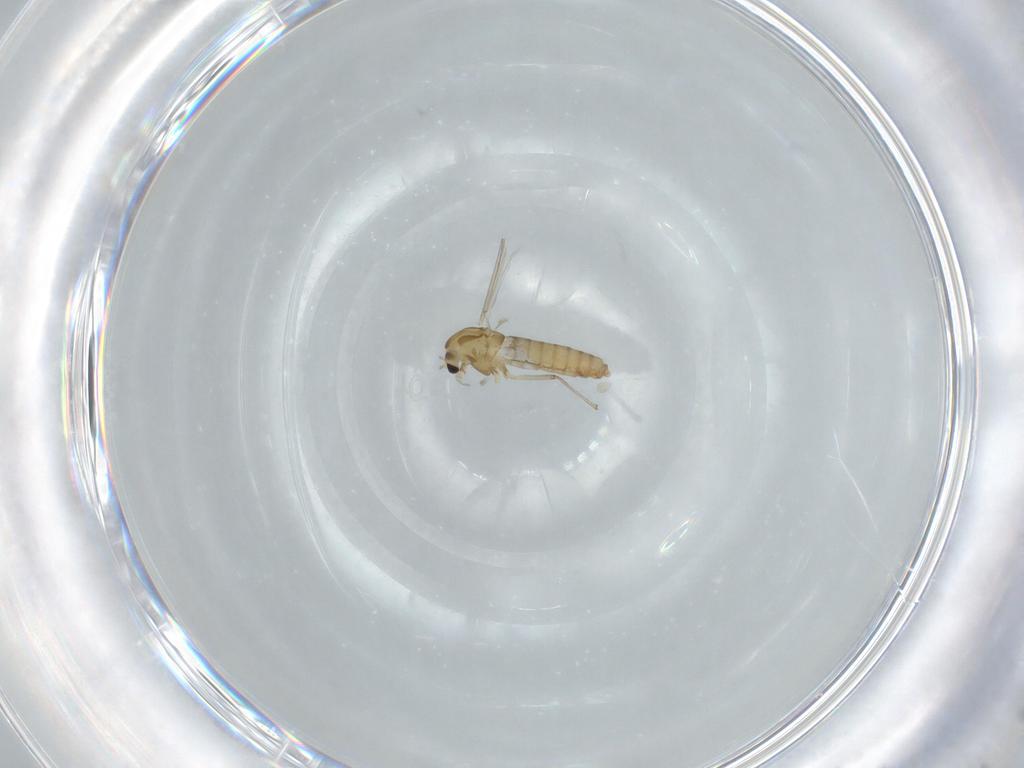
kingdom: Animalia
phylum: Arthropoda
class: Insecta
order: Diptera
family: Chironomidae
